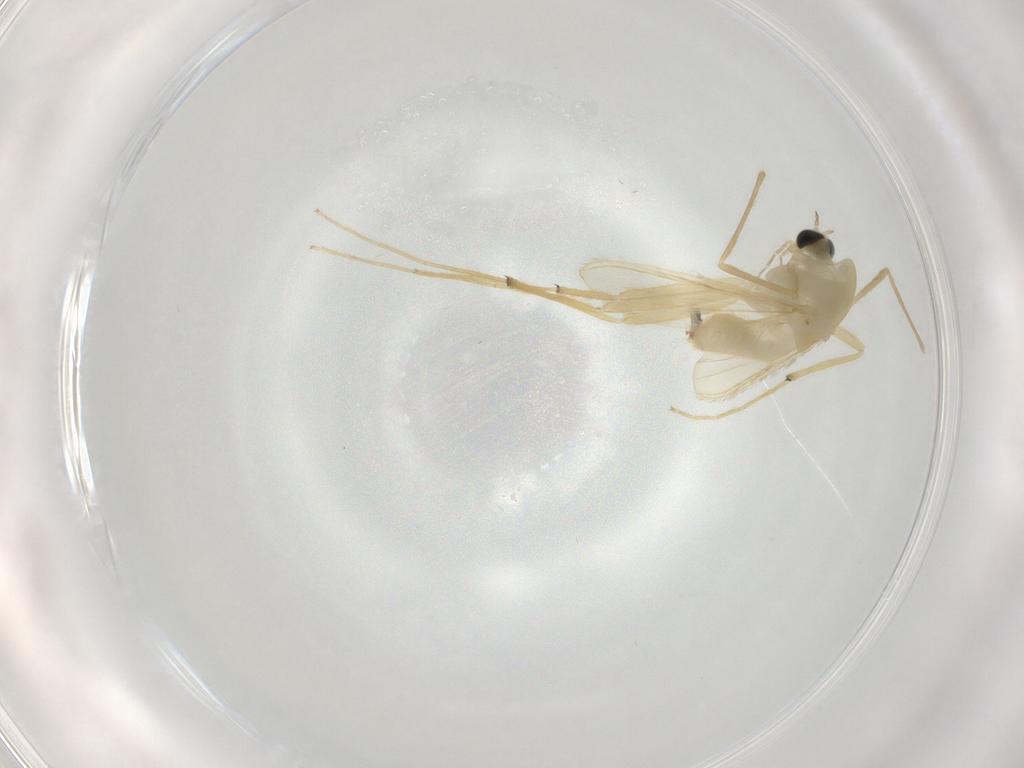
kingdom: Animalia
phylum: Arthropoda
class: Insecta
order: Diptera
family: Chironomidae
